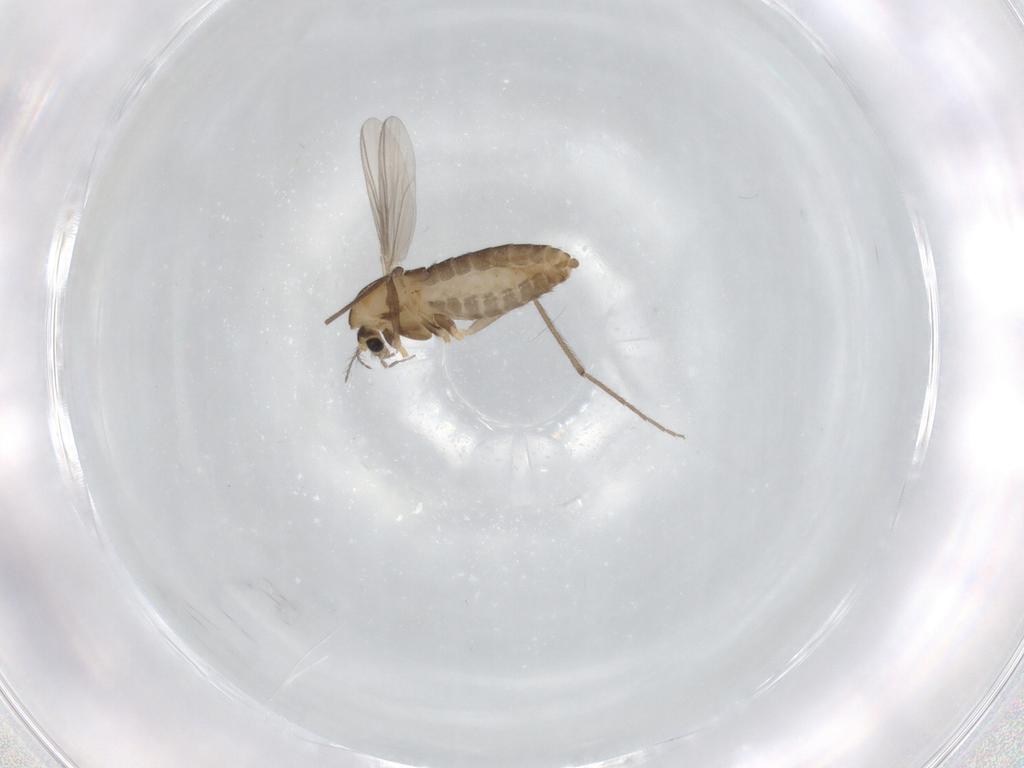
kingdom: Animalia
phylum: Arthropoda
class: Insecta
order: Diptera
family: Chironomidae
